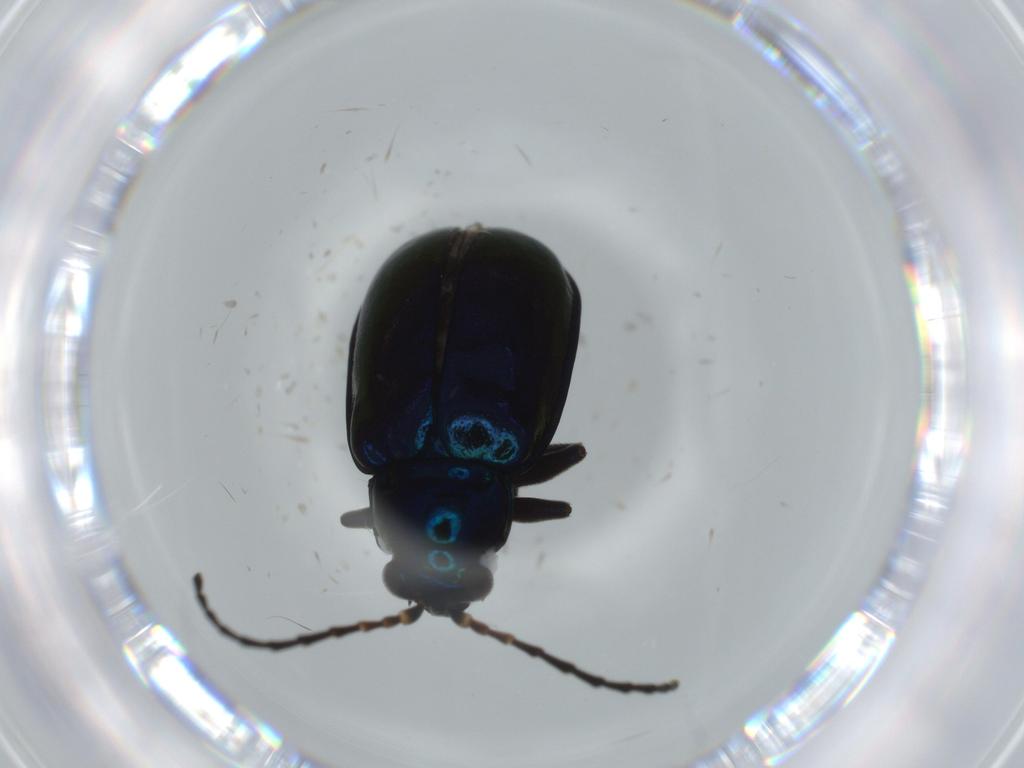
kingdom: Animalia
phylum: Arthropoda
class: Insecta
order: Coleoptera
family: Chrysomelidae
